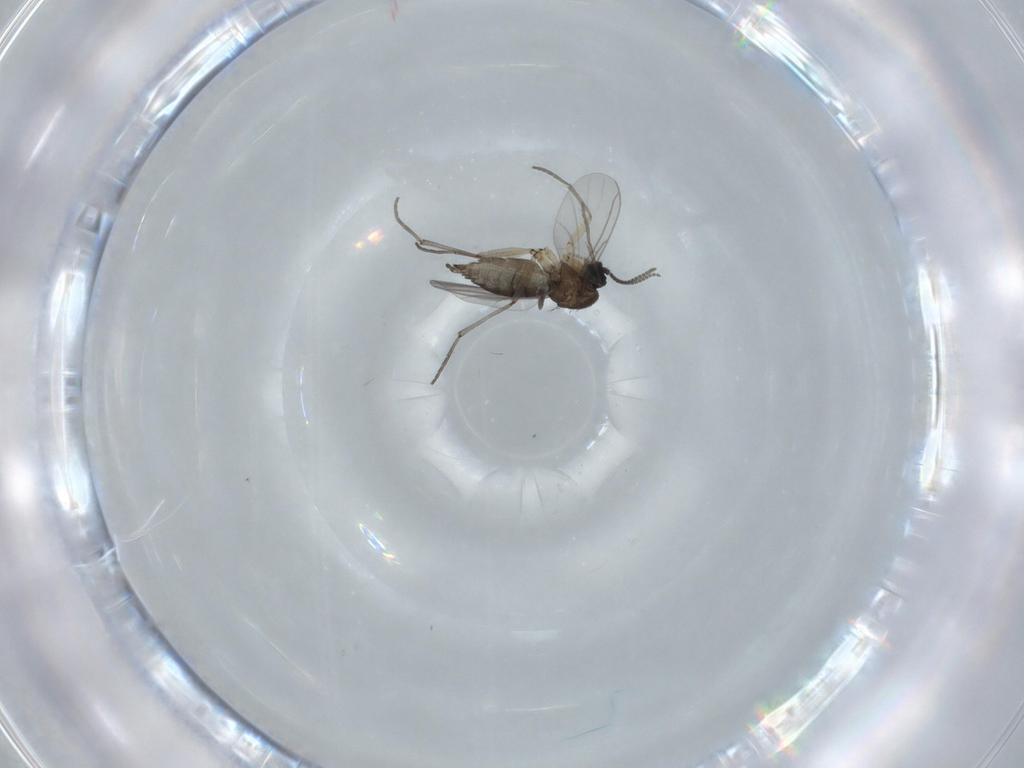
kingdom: Animalia
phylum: Arthropoda
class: Insecta
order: Diptera
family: Sciaridae
